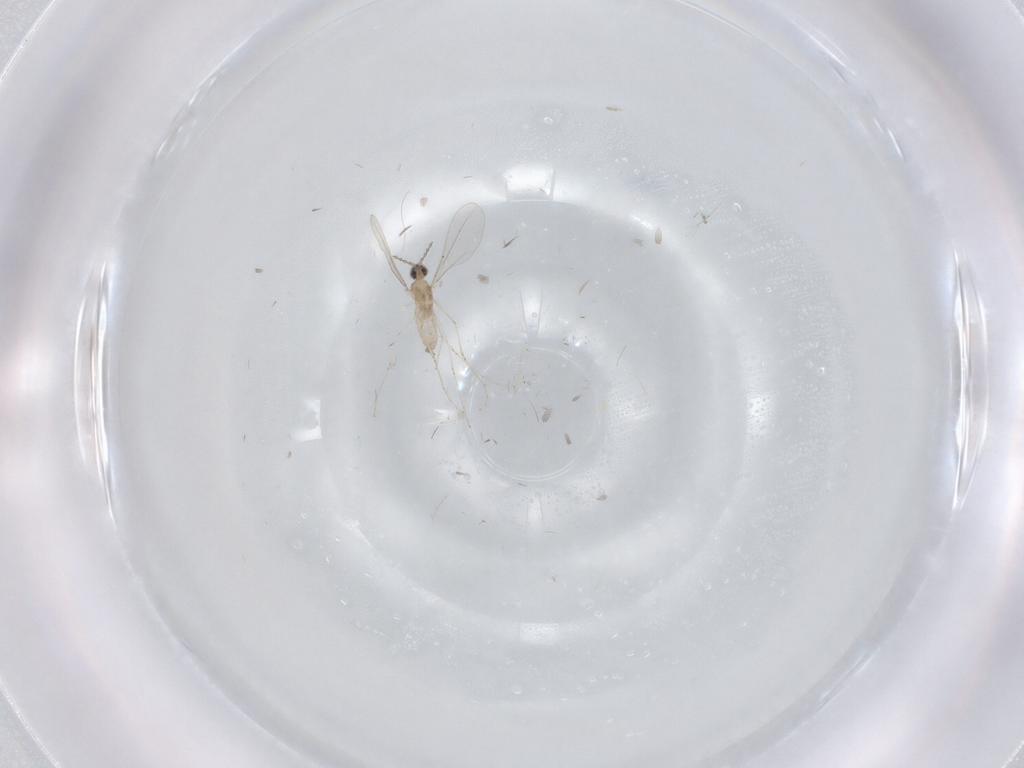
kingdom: Animalia
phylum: Arthropoda
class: Insecta
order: Diptera
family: Cecidomyiidae
